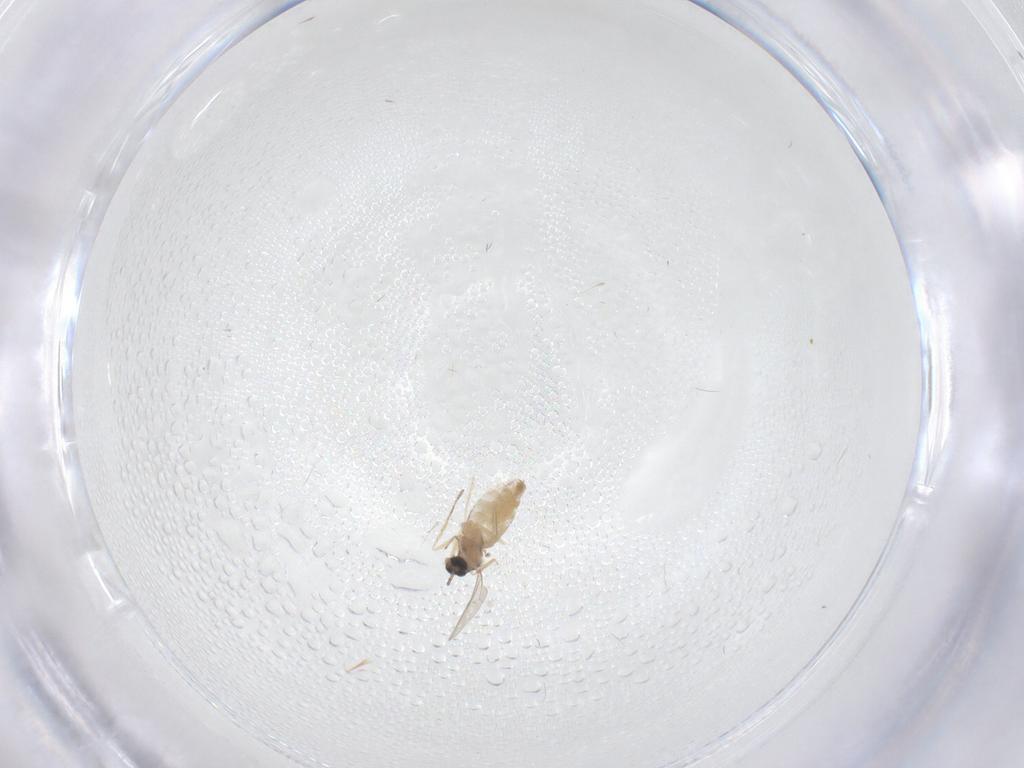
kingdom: Animalia
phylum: Arthropoda
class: Insecta
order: Diptera
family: Cecidomyiidae
